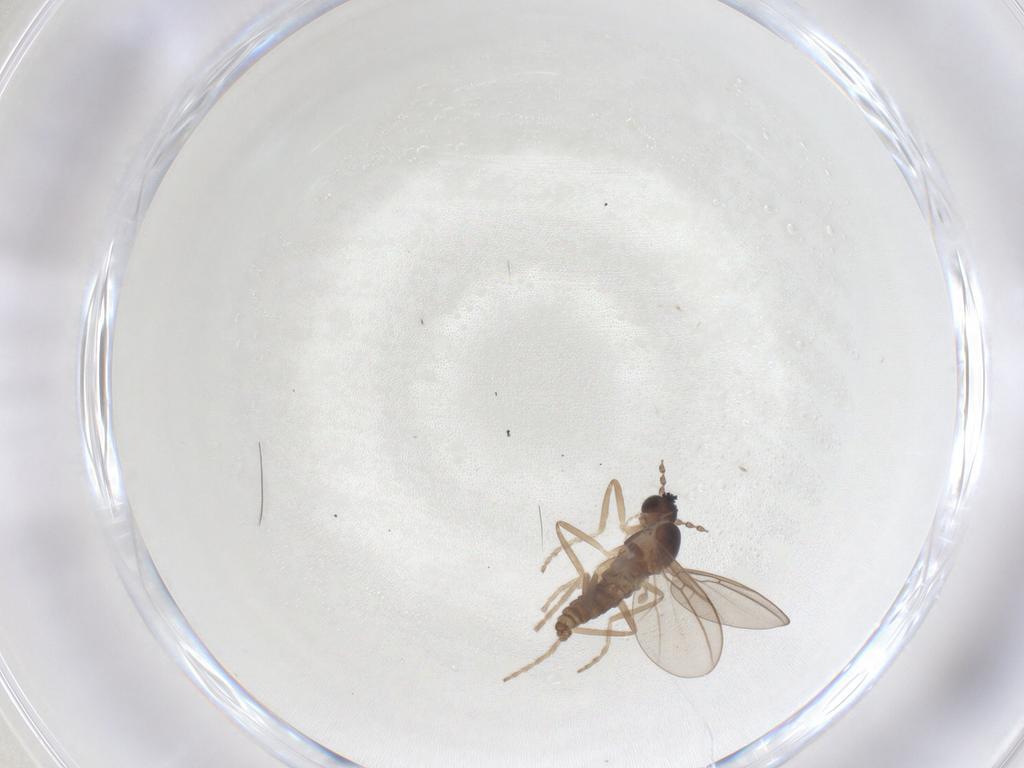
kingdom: Animalia
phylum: Arthropoda
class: Insecta
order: Diptera
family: Cecidomyiidae
